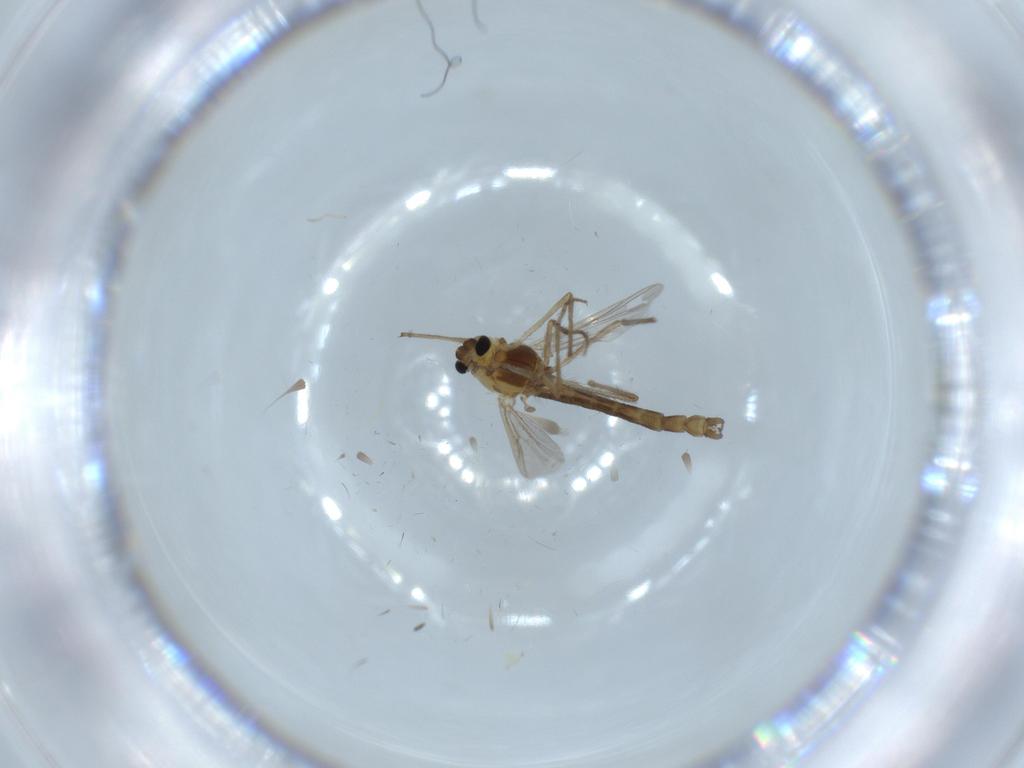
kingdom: Animalia
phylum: Arthropoda
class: Insecta
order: Diptera
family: Chironomidae
